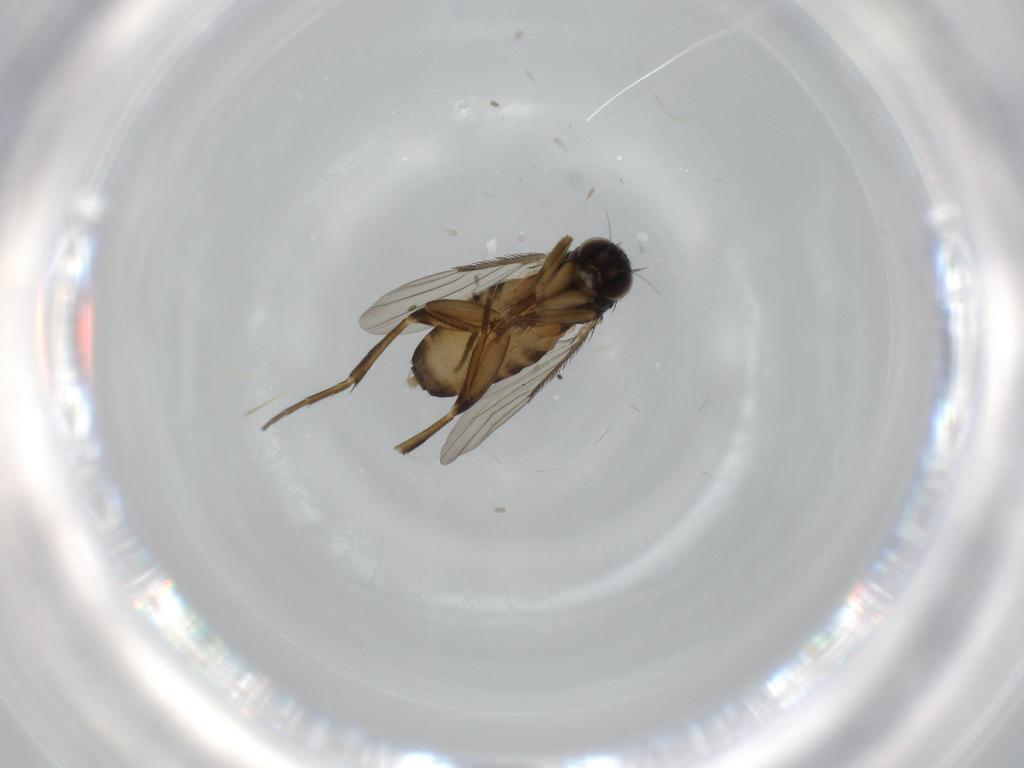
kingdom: Animalia
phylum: Arthropoda
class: Insecta
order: Diptera
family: Phoridae
